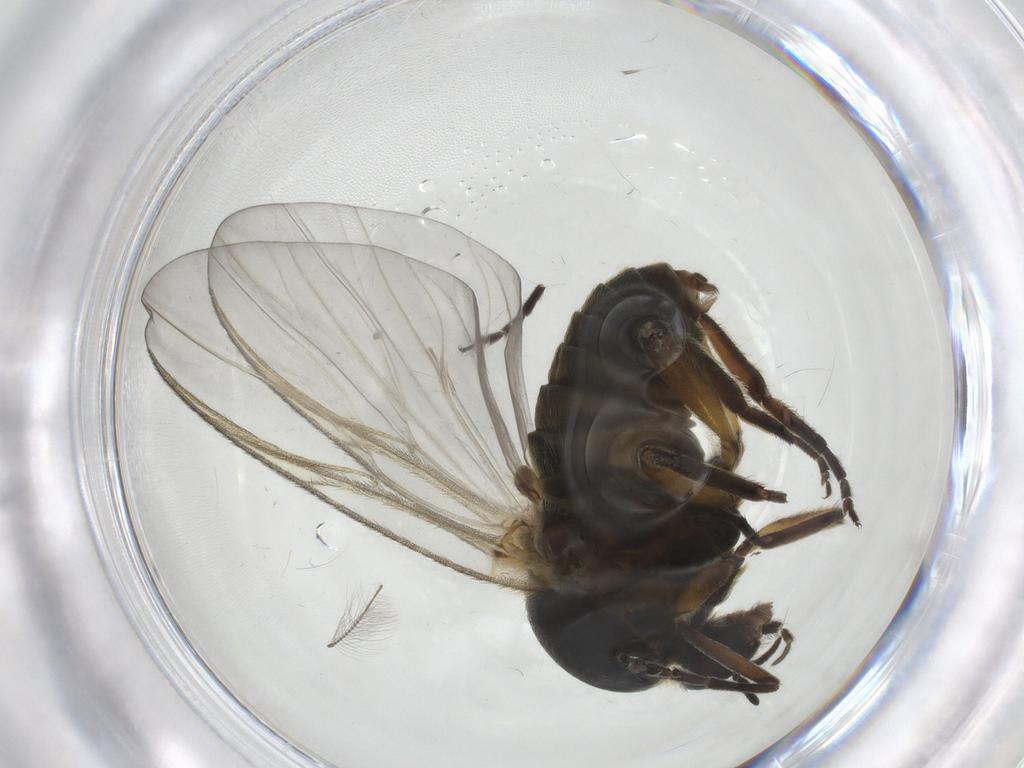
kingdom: Animalia
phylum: Arthropoda
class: Insecta
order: Diptera
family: Simuliidae
